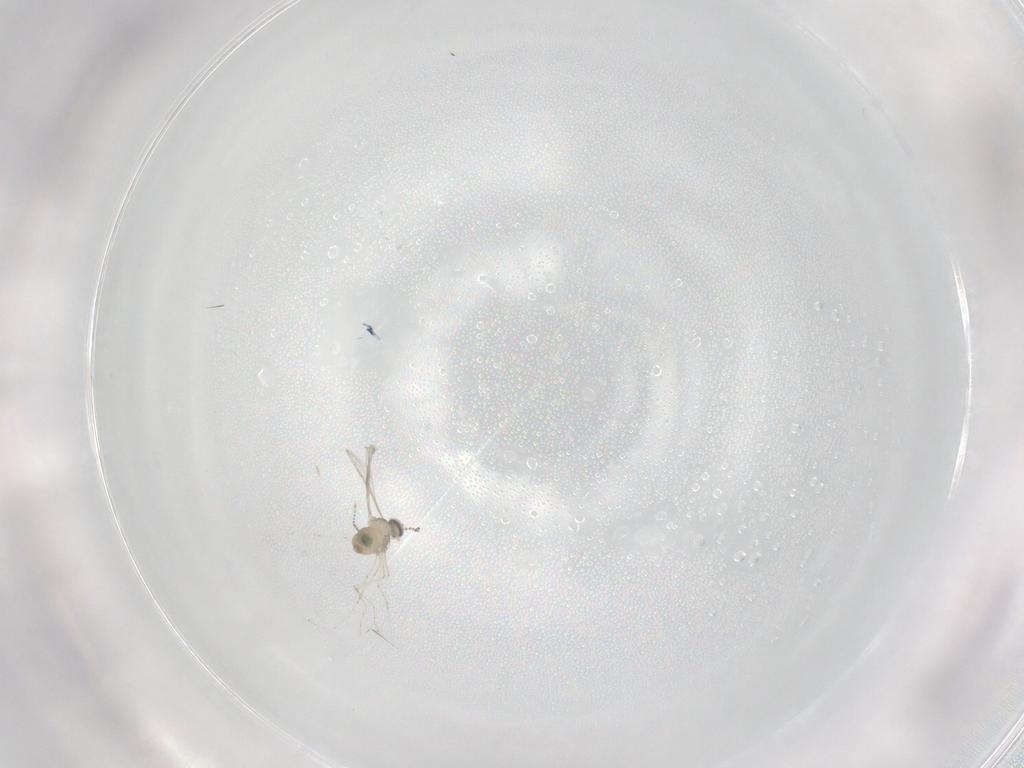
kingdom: Animalia
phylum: Arthropoda
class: Insecta
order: Diptera
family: Cecidomyiidae
